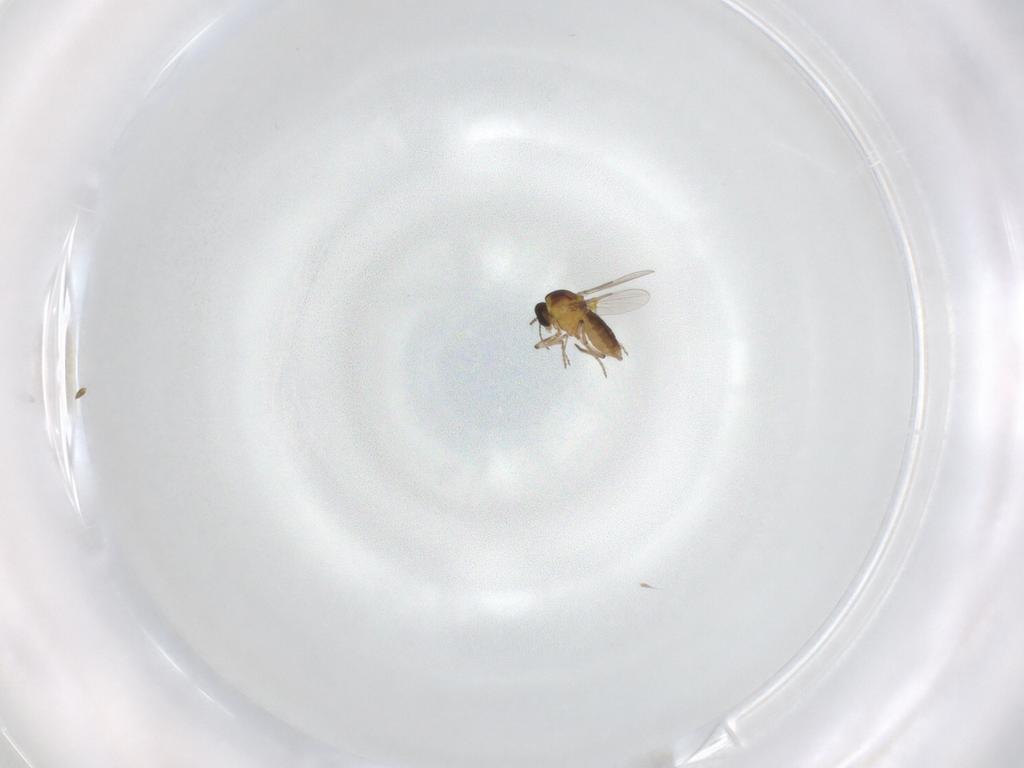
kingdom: Animalia
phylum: Arthropoda
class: Insecta
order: Diptera
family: Ceratopogonidae
